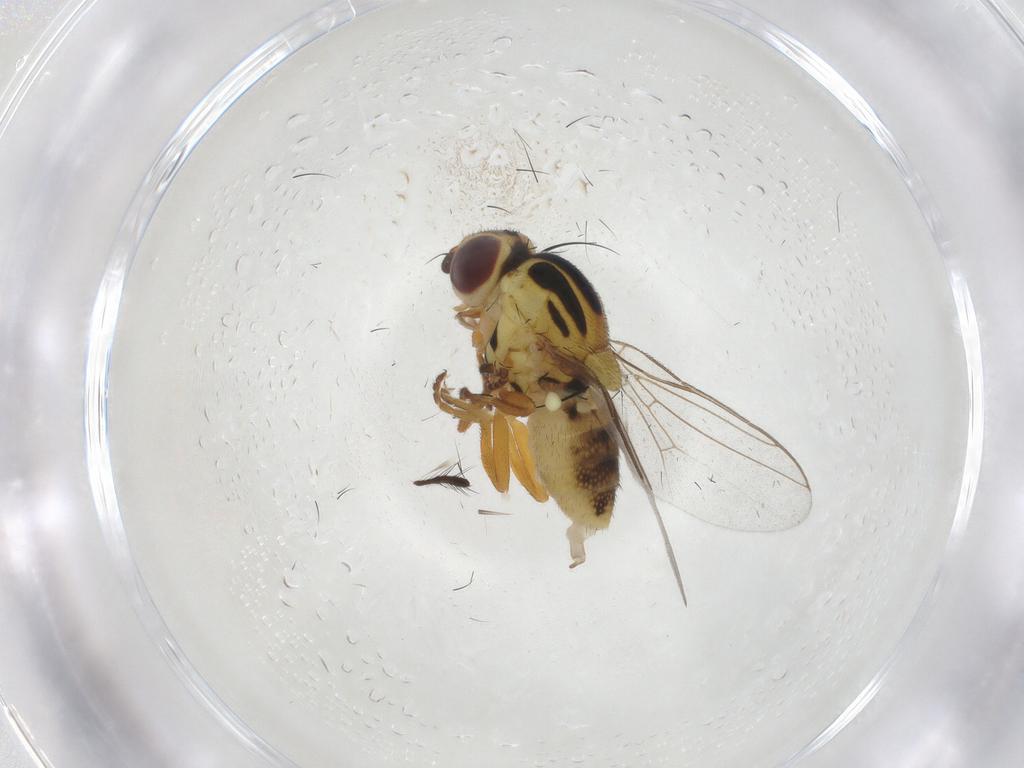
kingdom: Animalia
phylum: Arthropoda
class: Insecta
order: Diptera
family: Chloropidae
